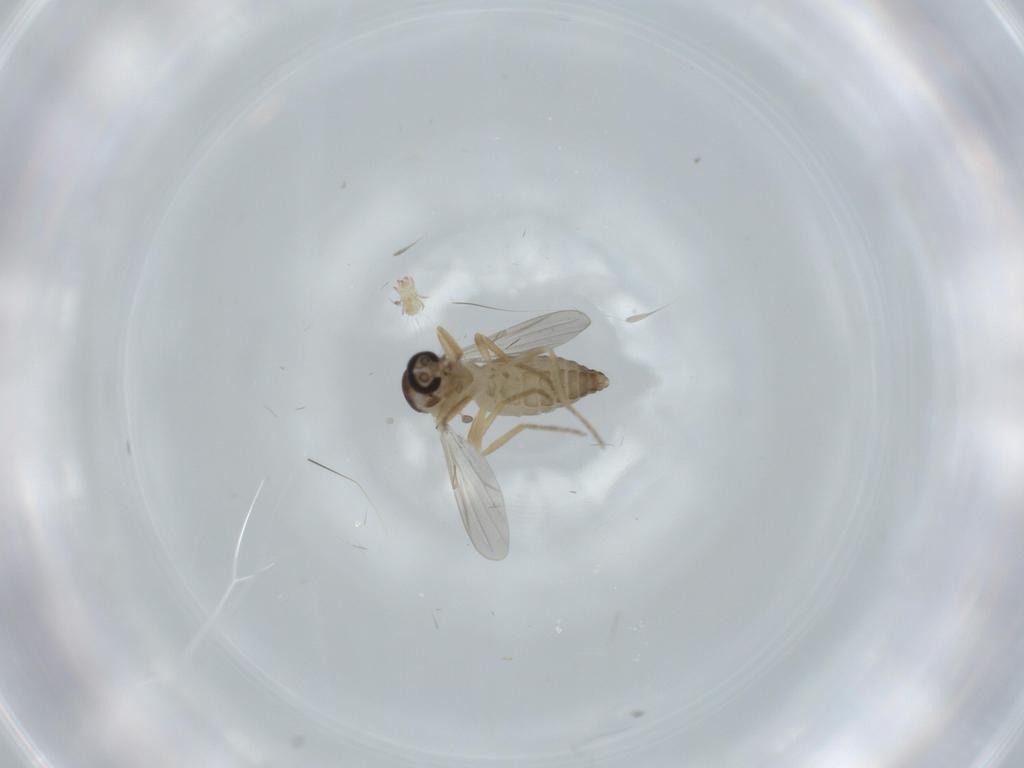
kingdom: Animalia
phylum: Arthropoda
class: Insecta
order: Diptera
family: Ceratopogonidae
